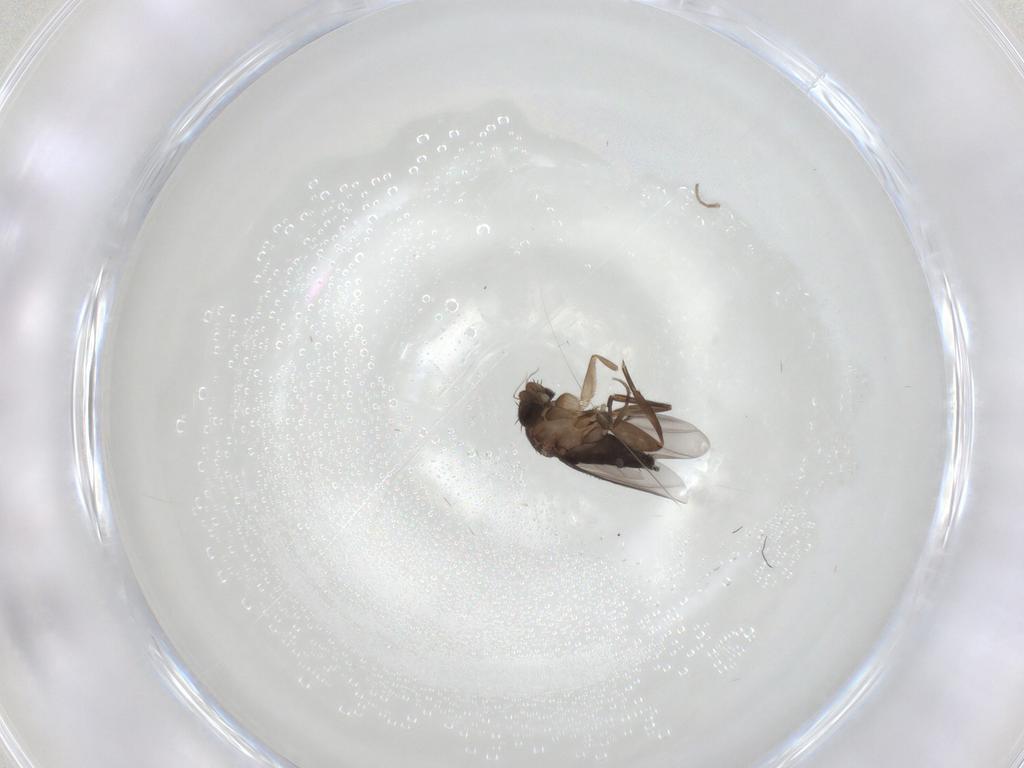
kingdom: Animalia
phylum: Arthropoda
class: Insecta
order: Diptera
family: Phoridae
